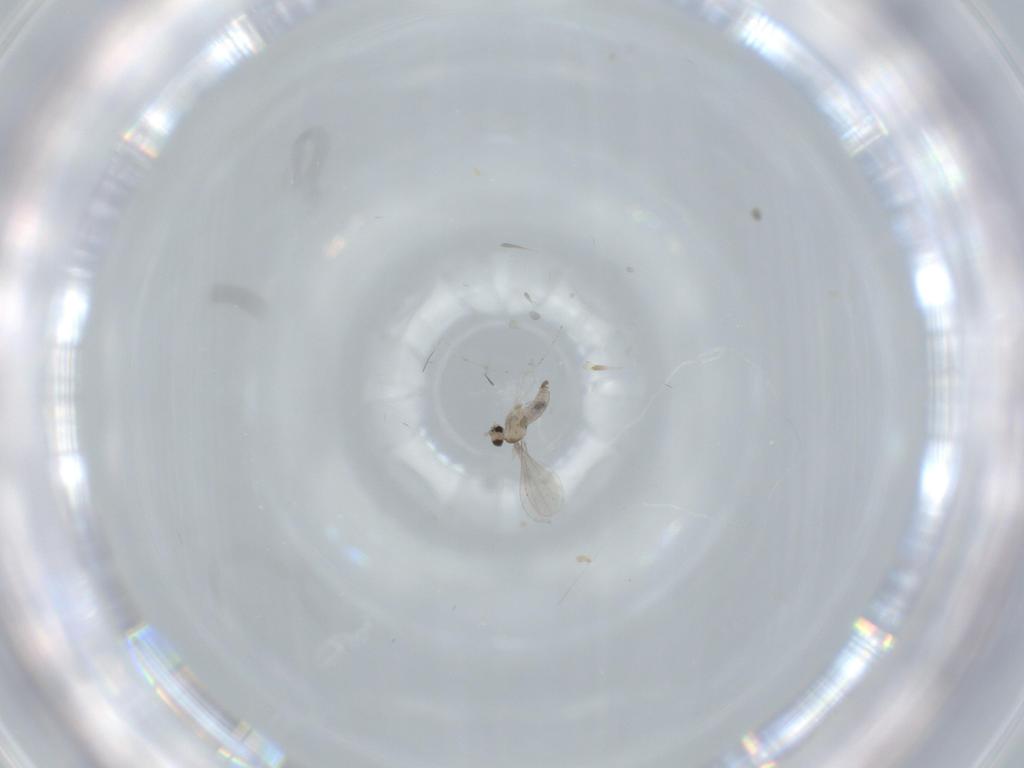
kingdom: Animalia
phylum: Arthropoda
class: Insecta
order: Diptera
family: Cecidomyiidae
